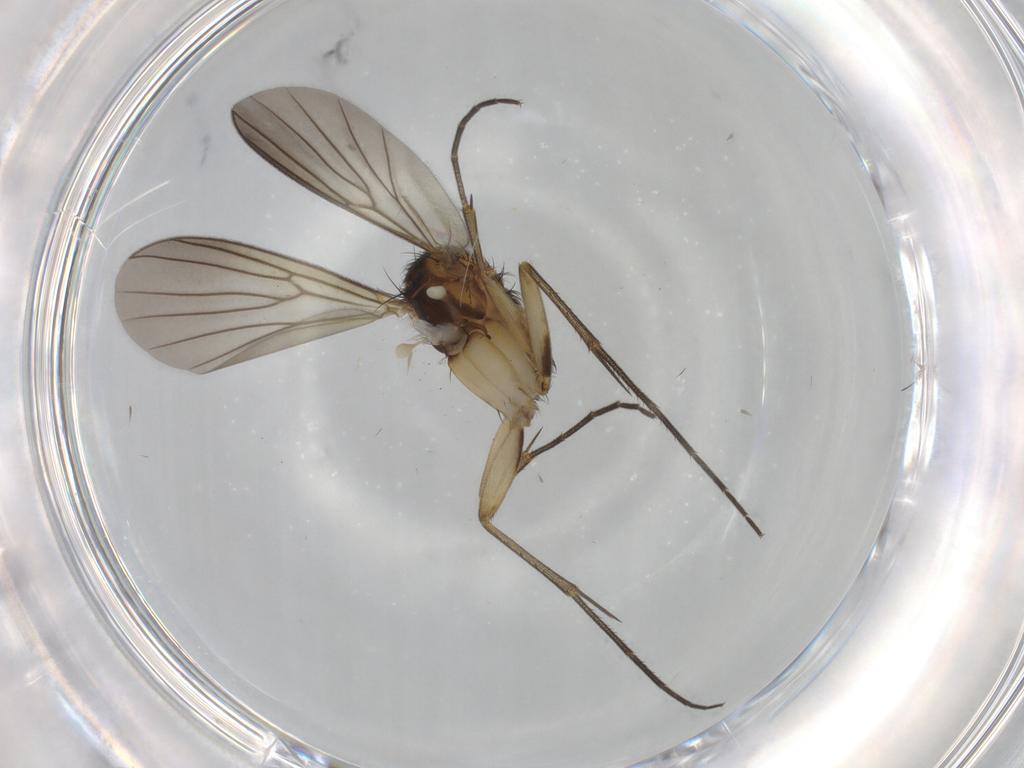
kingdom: Animalia
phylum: Arthropoda
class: Insecta
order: Diptera
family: Mycetophilidae
